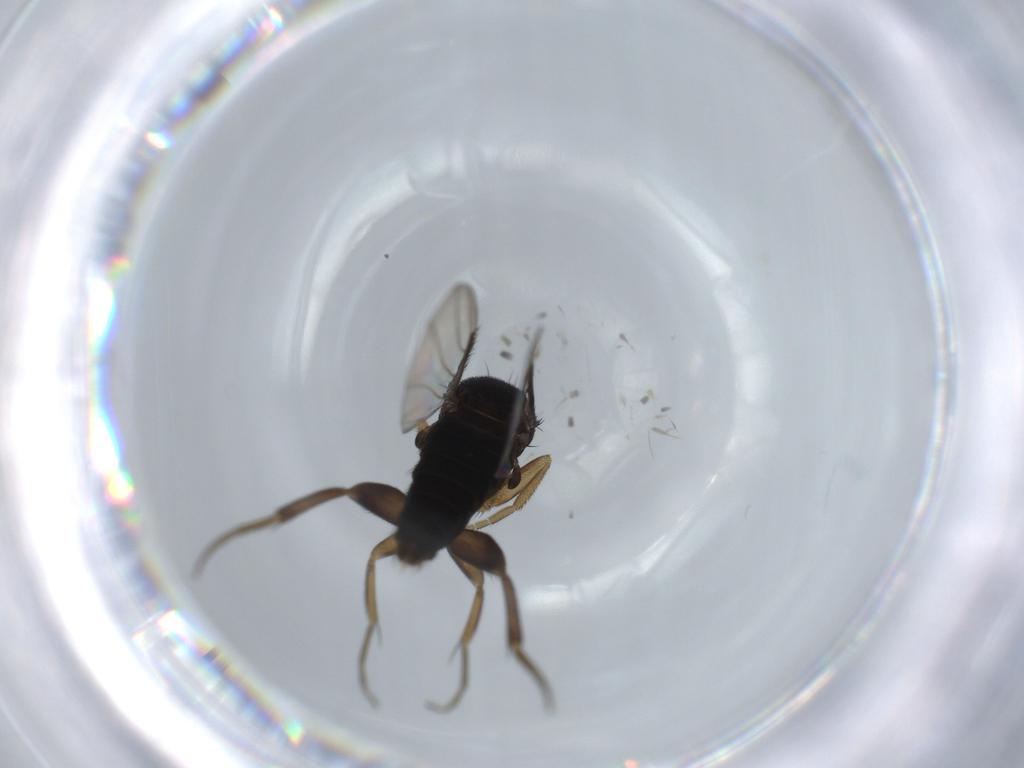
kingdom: Animalia
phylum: Arthropoda
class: Insecta
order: Diptera
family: Phoridae
